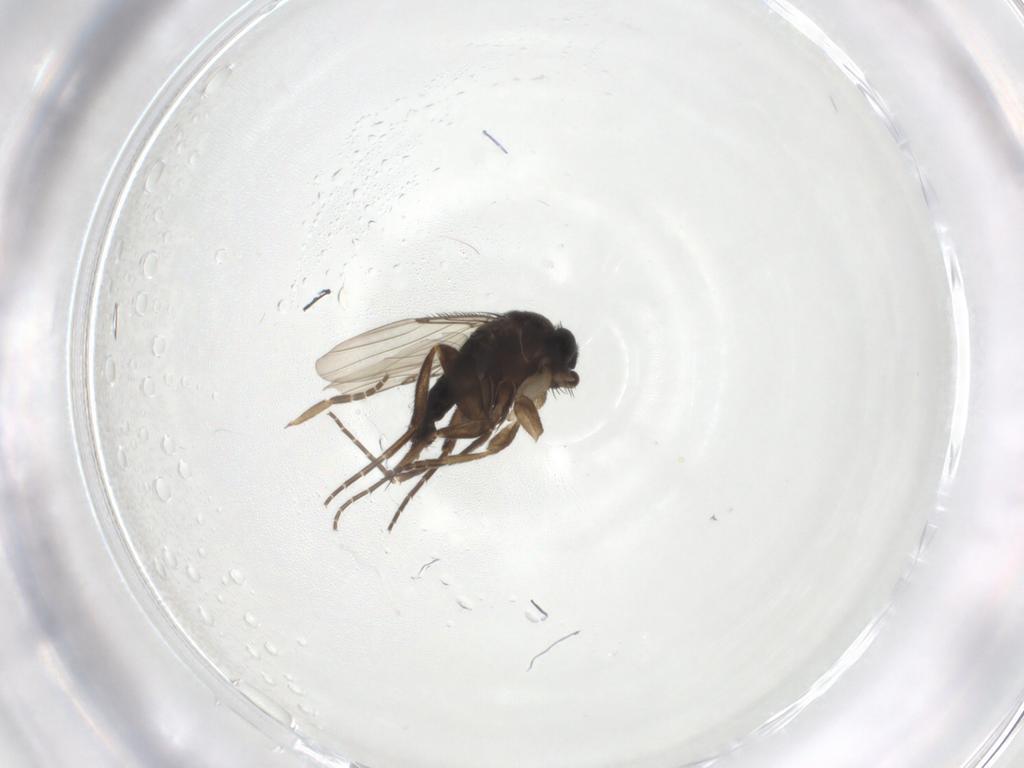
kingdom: Animalia
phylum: Arthropoda
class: Insecta
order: Diptera
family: Phoridae
